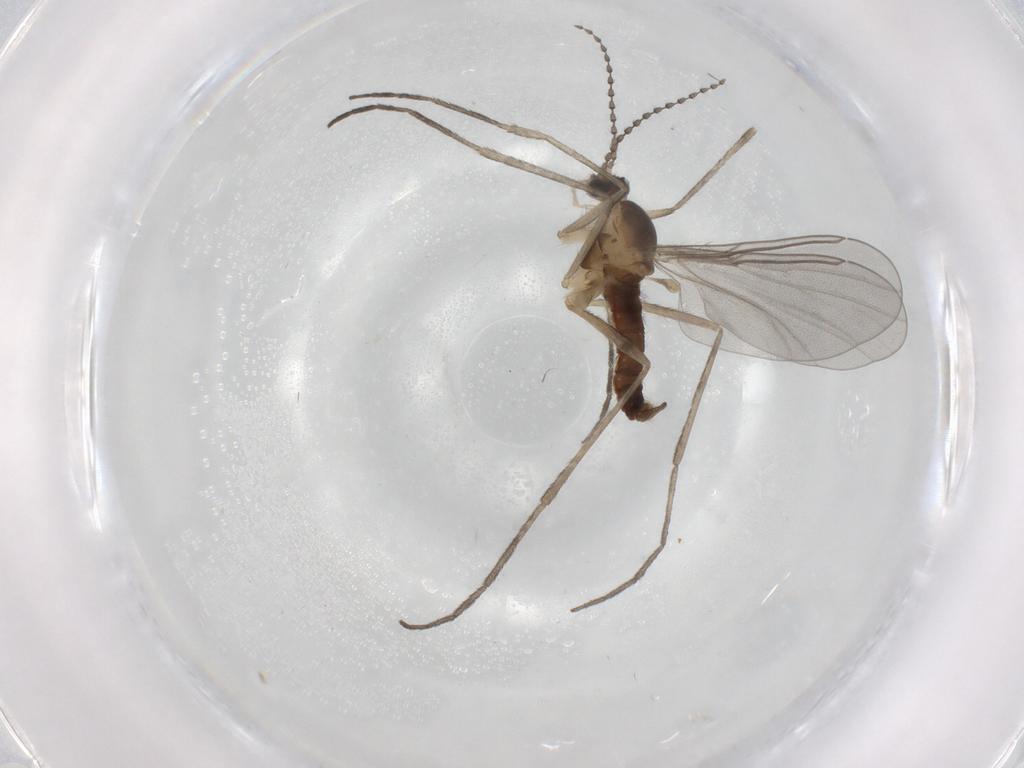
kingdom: Animalia
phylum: Arthropoda
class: Insecta
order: Diptera
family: Cecidomyiidae
